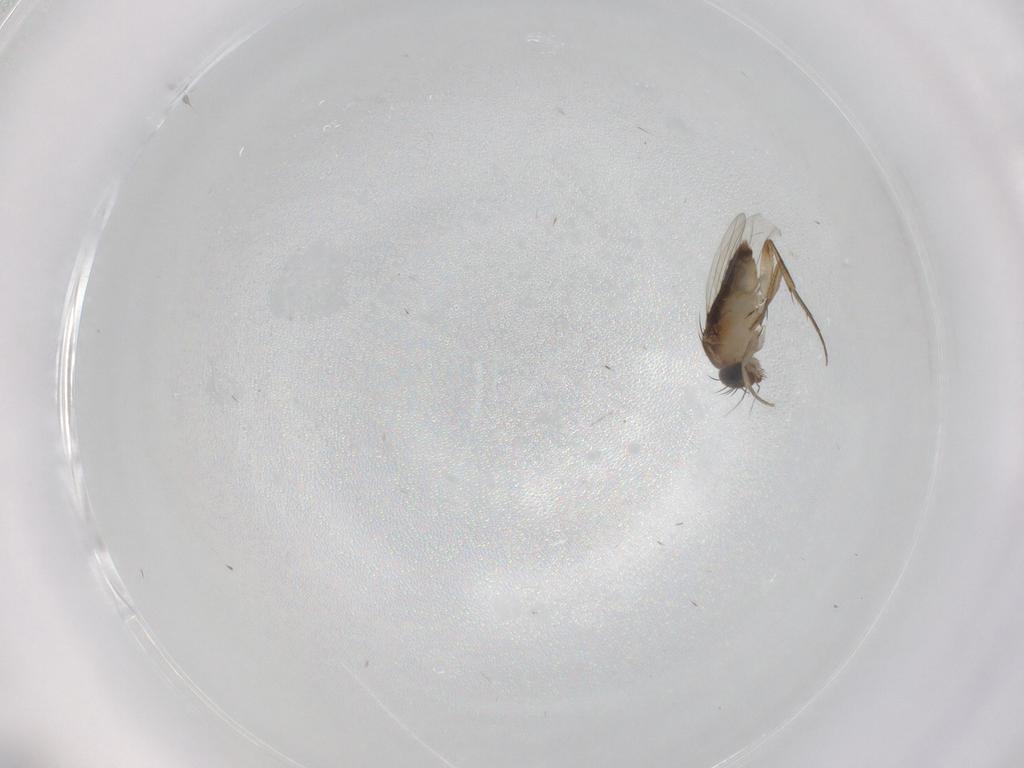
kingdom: Animalia
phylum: Arthropoda
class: Insecta
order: Diptera
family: Phoridae
